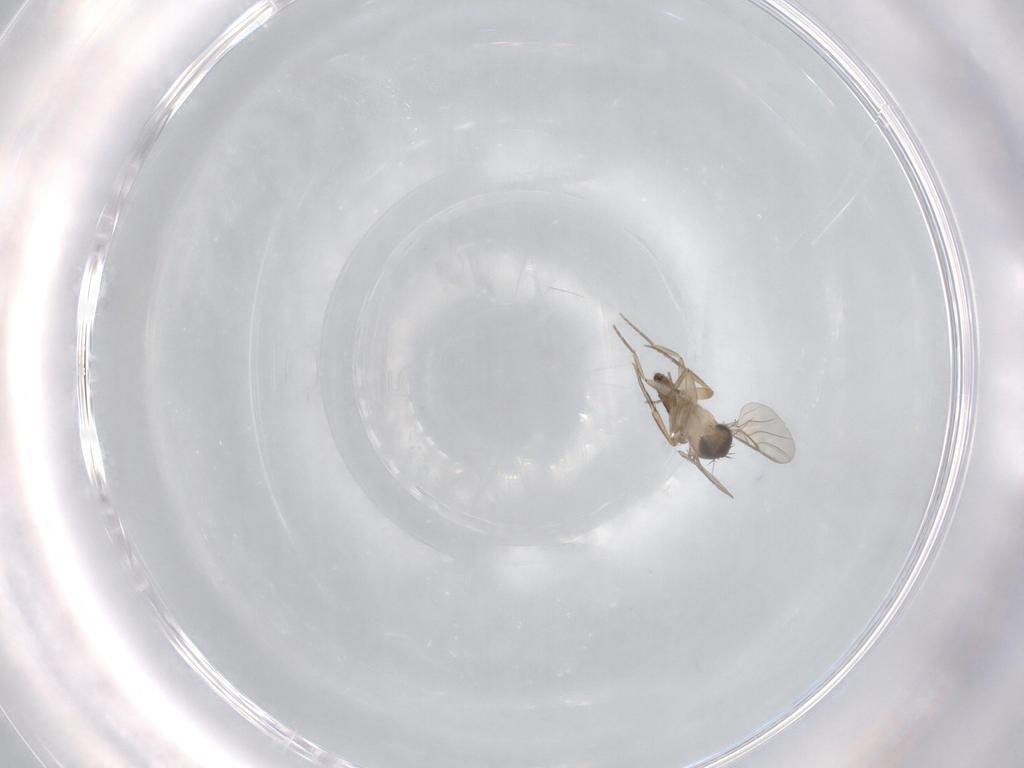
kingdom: Animalia
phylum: Arthropoda
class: Insecta
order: Diptera
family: Phoridae
